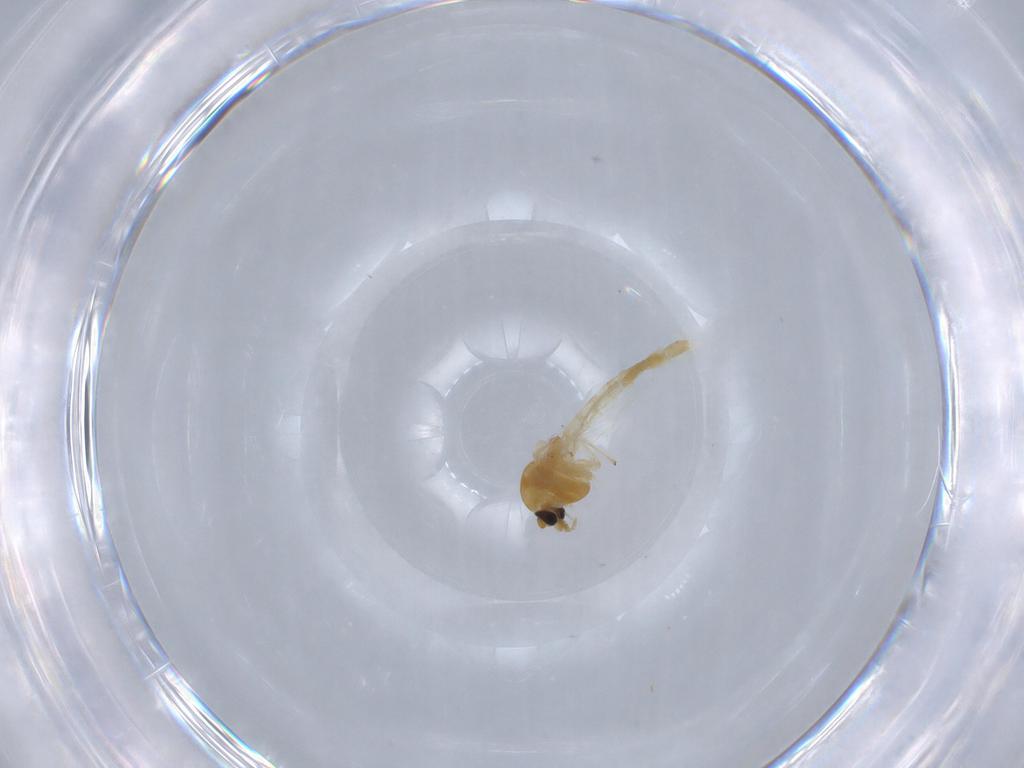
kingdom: Animalia
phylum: Arthropoda
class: Insecta
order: Diptera
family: Chironomidae
